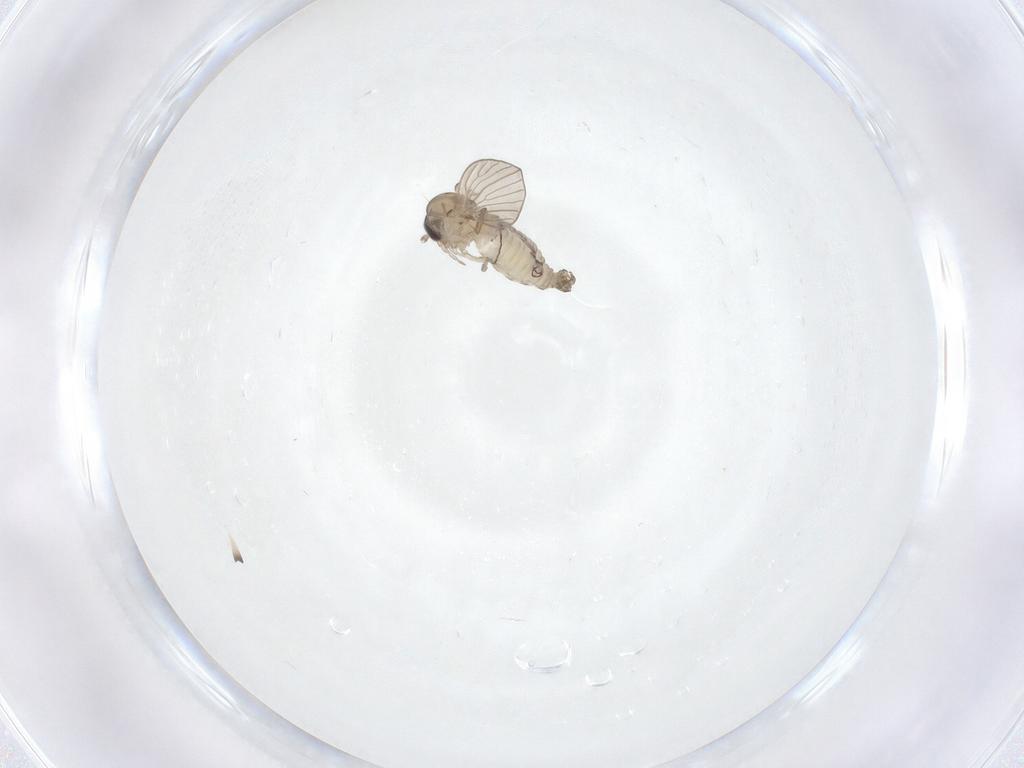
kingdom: Animalia
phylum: Arthropoda
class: Insecta
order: Diptera
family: Psychodidae
